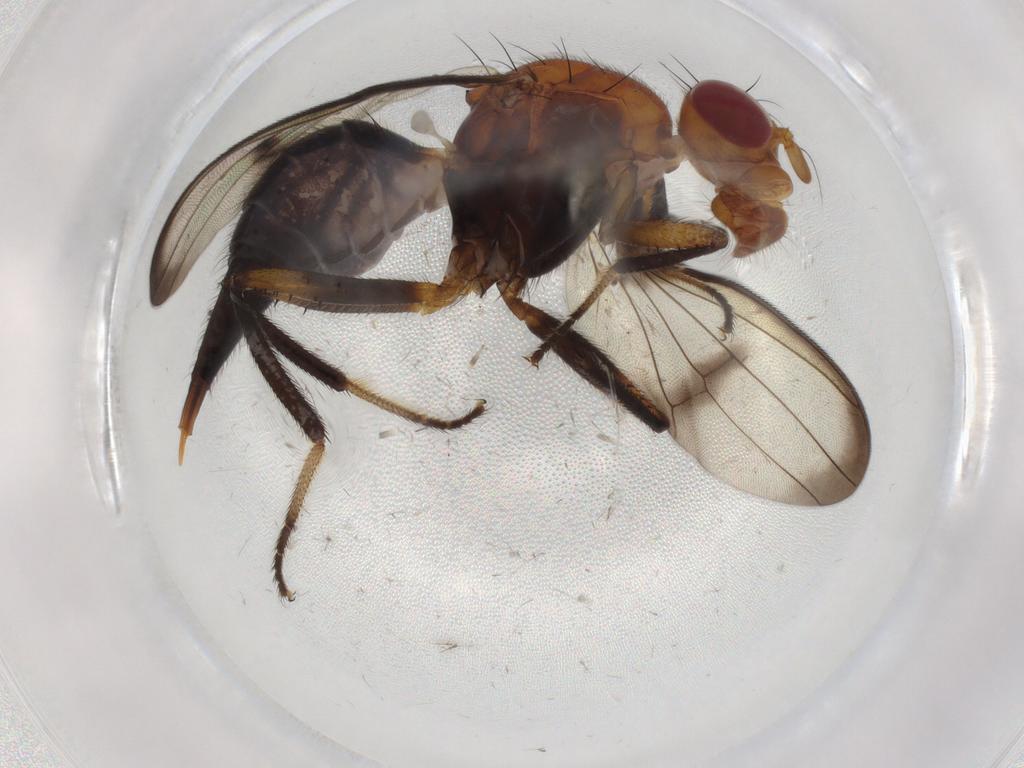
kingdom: Animalia
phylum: Arthropoda
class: Insecta
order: Diptera
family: Richardiidae
